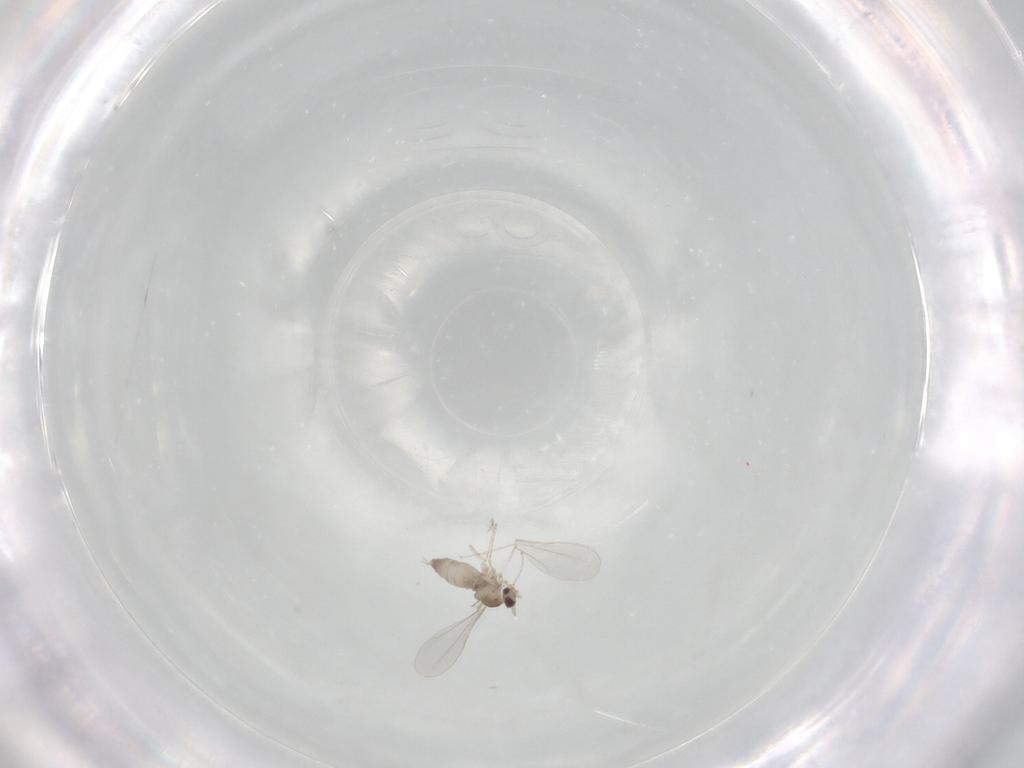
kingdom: Animalia
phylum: Arthropoda
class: Insecta
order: Diptera
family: Cecidomyiidae
